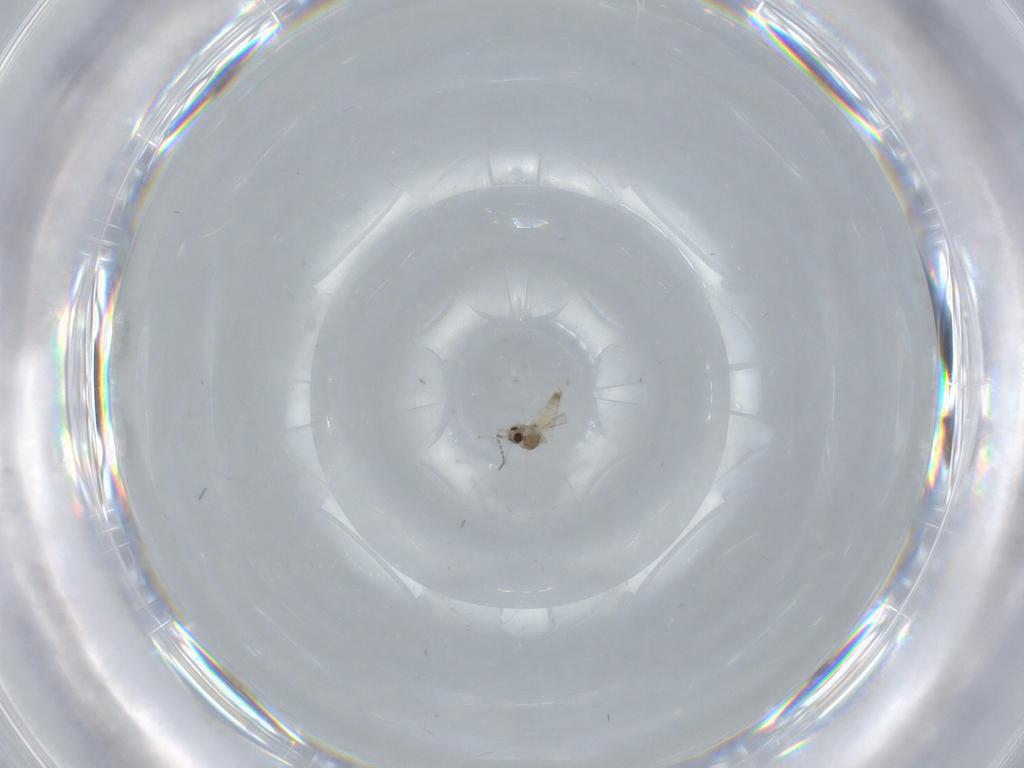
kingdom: Animalia
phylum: Arthropoda
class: Insecta
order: Diptera
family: Cecidomyiidae
